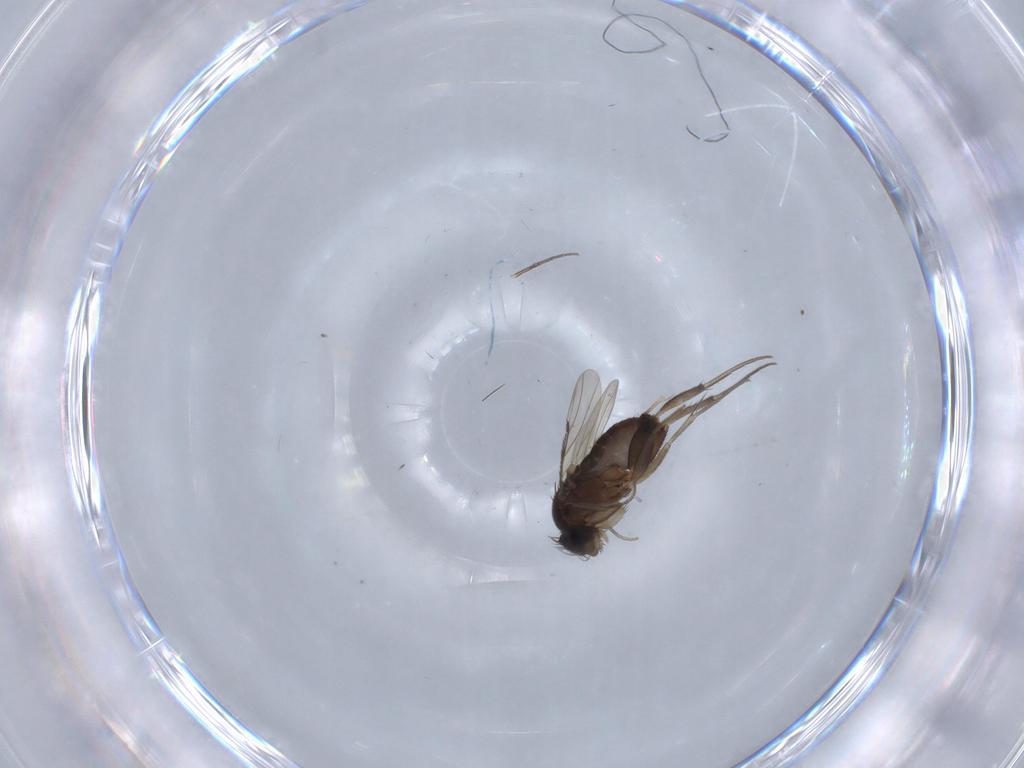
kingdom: Animalia
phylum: Arthropoda
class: Insecta
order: Diptera
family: Phoridae
